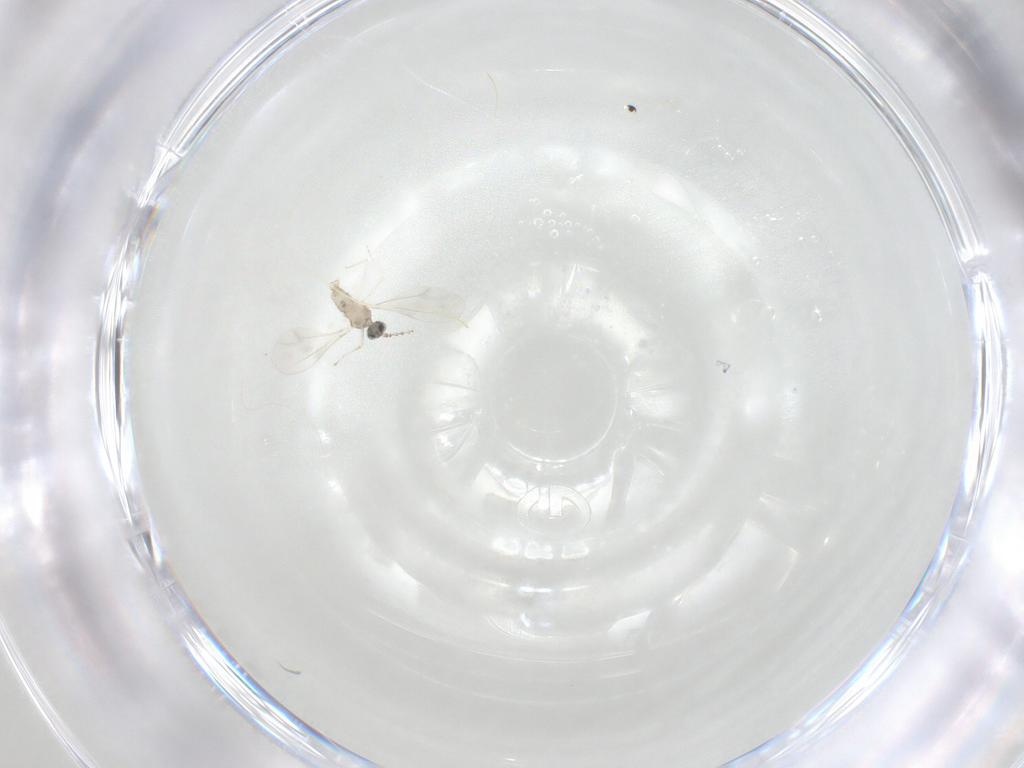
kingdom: Animalia
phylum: Arthropoda
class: Insecta
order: Diptera
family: Cecidomyiidae
